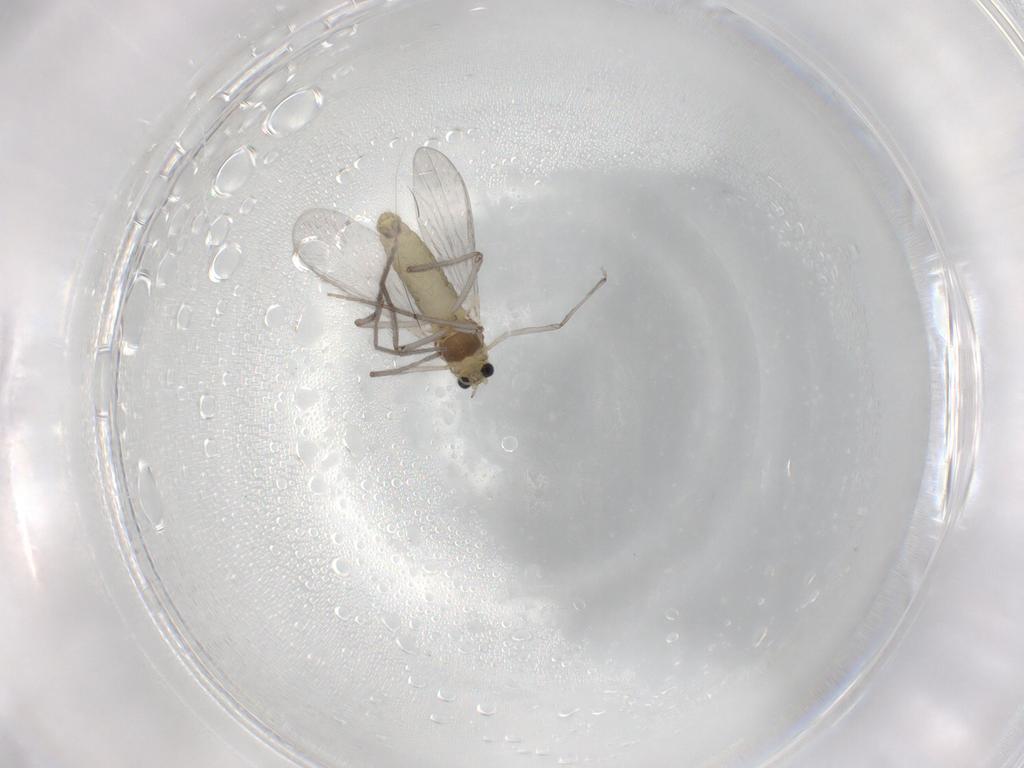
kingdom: Animalia
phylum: Arthropoda
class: Insecta
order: Diptera
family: Chironomidae
